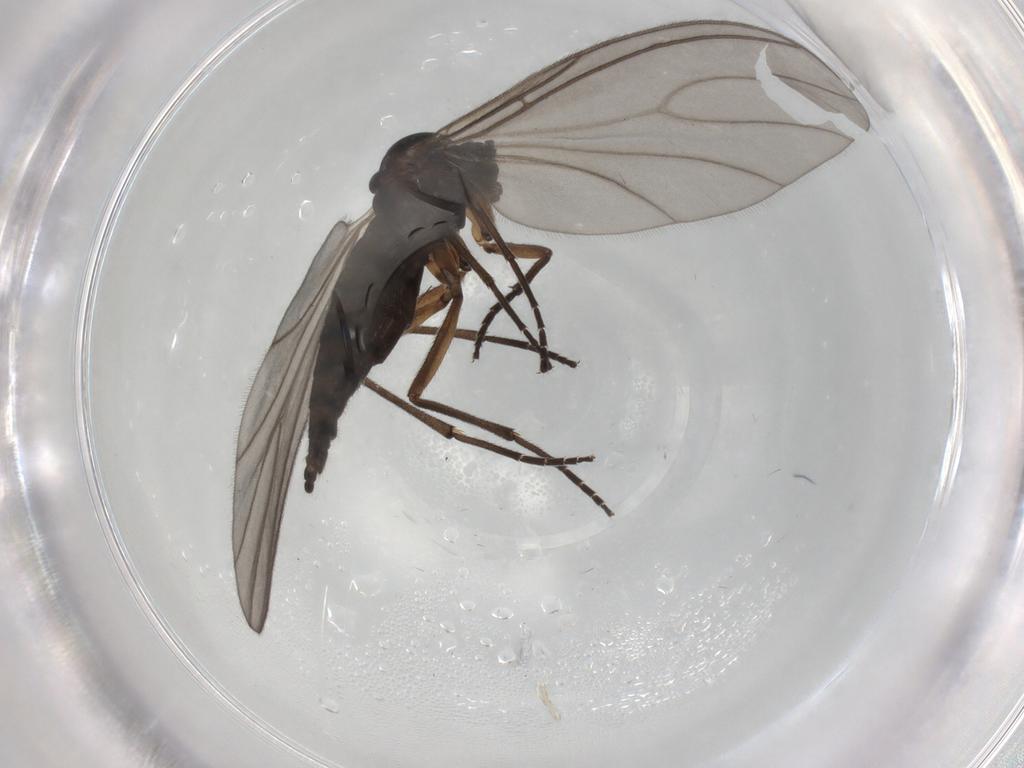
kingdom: Animalia
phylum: Arthropoda
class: Insecta
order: Diptera
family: Sciaridae
